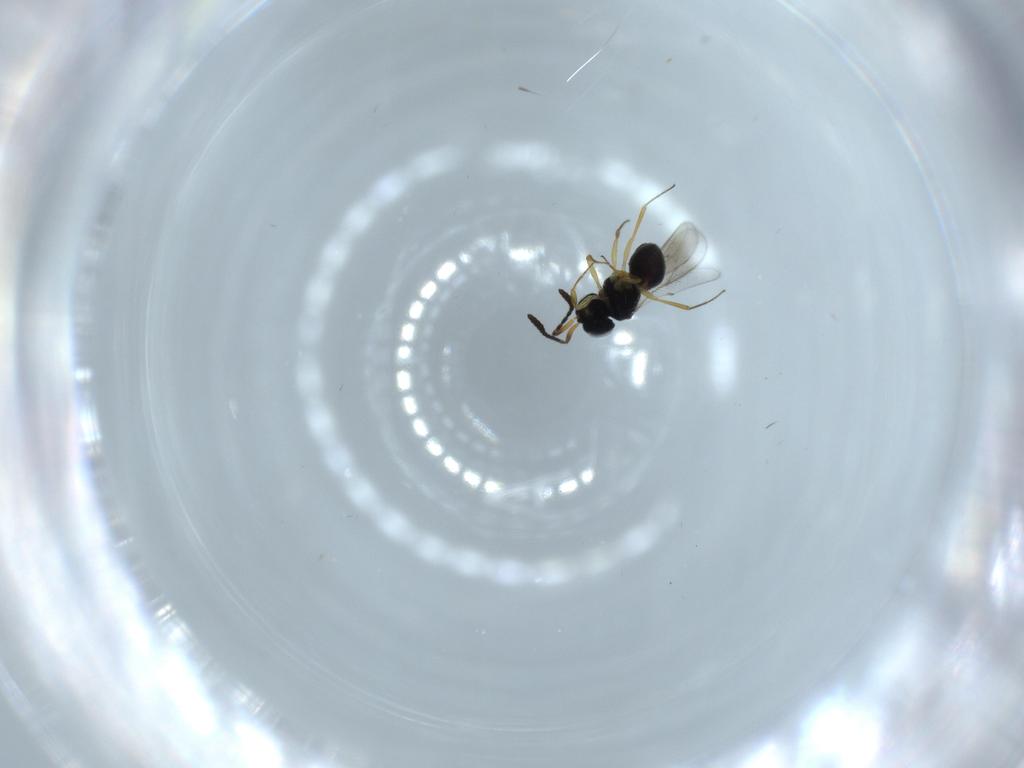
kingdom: Animalia
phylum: Arthropoda
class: Insecta
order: Hymenoptera
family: Scelionidae
